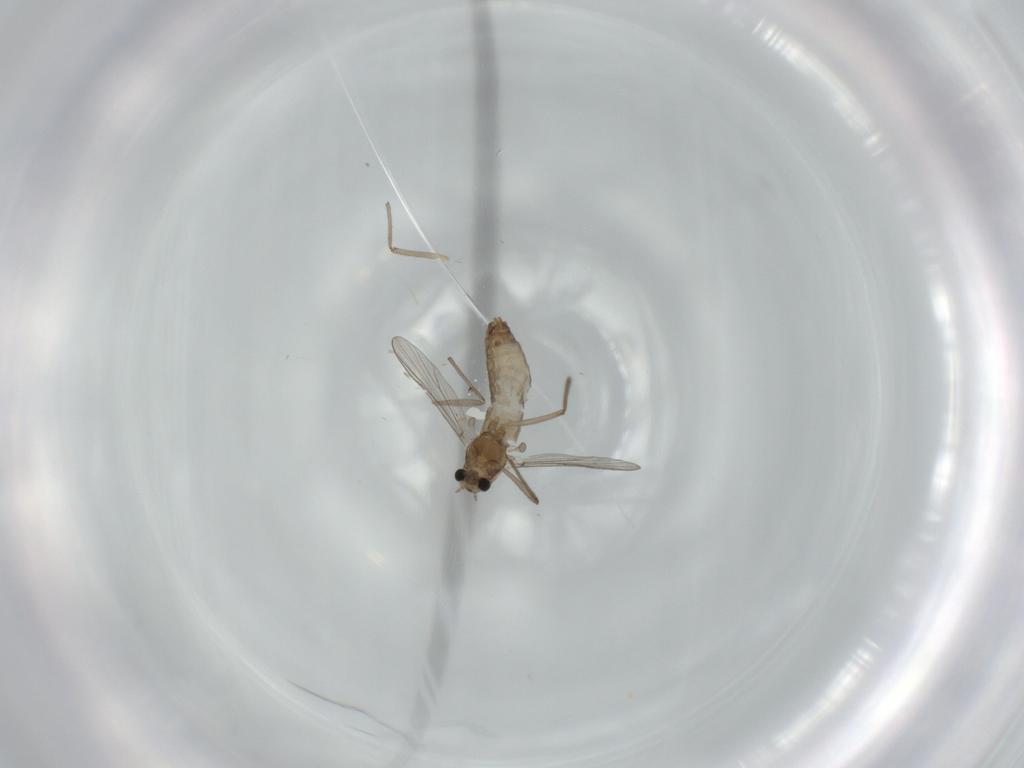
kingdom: Animalia
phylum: Arthropoda
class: Insecta
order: Diptera
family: Chironomidae
